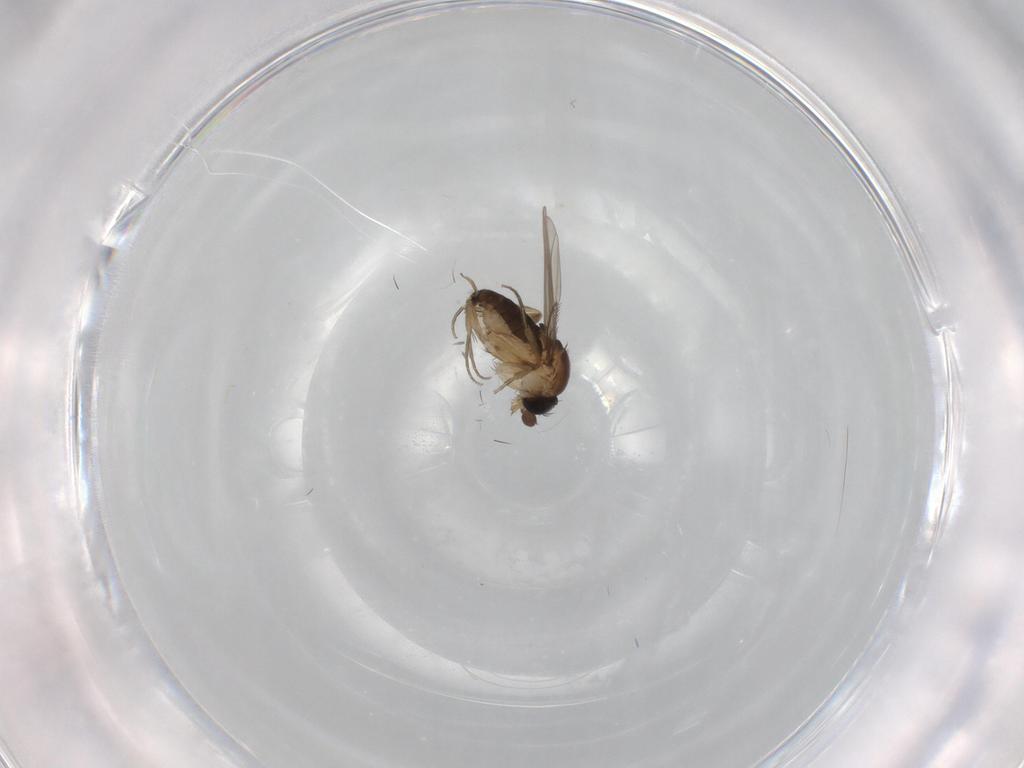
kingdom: Animalia
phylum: Arthropoda
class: Insecta
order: Diptera
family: Phoridae
